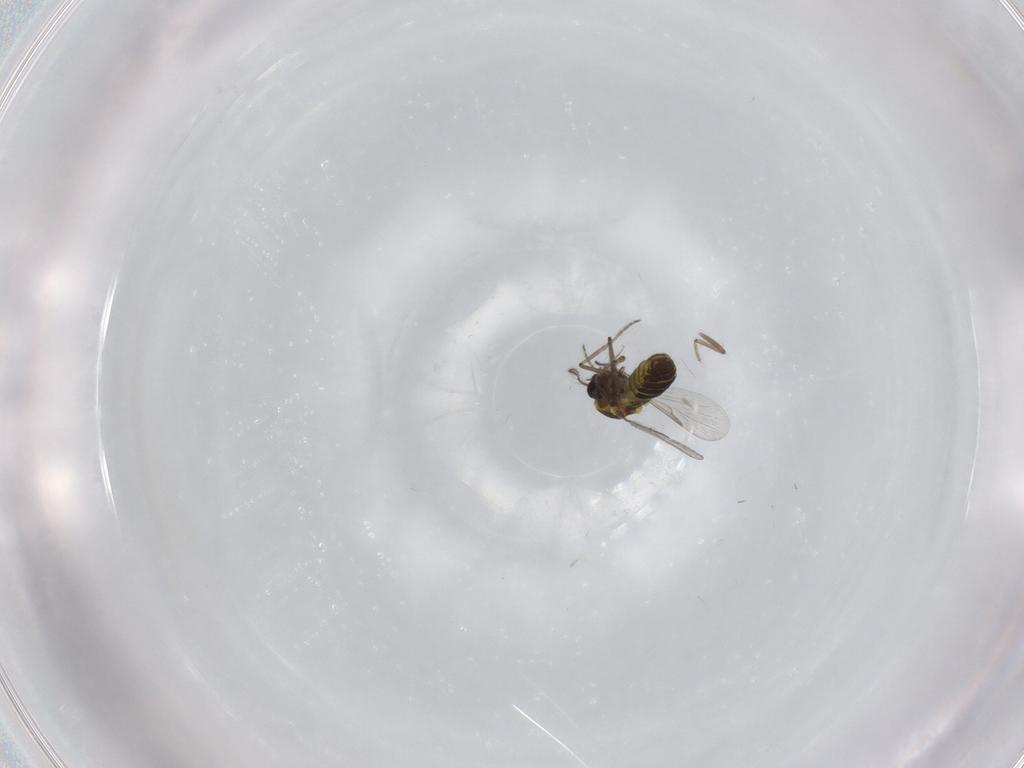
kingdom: Animalia
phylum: Arthropoda
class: Insecta
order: Diptera
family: Ceratopogonidae
